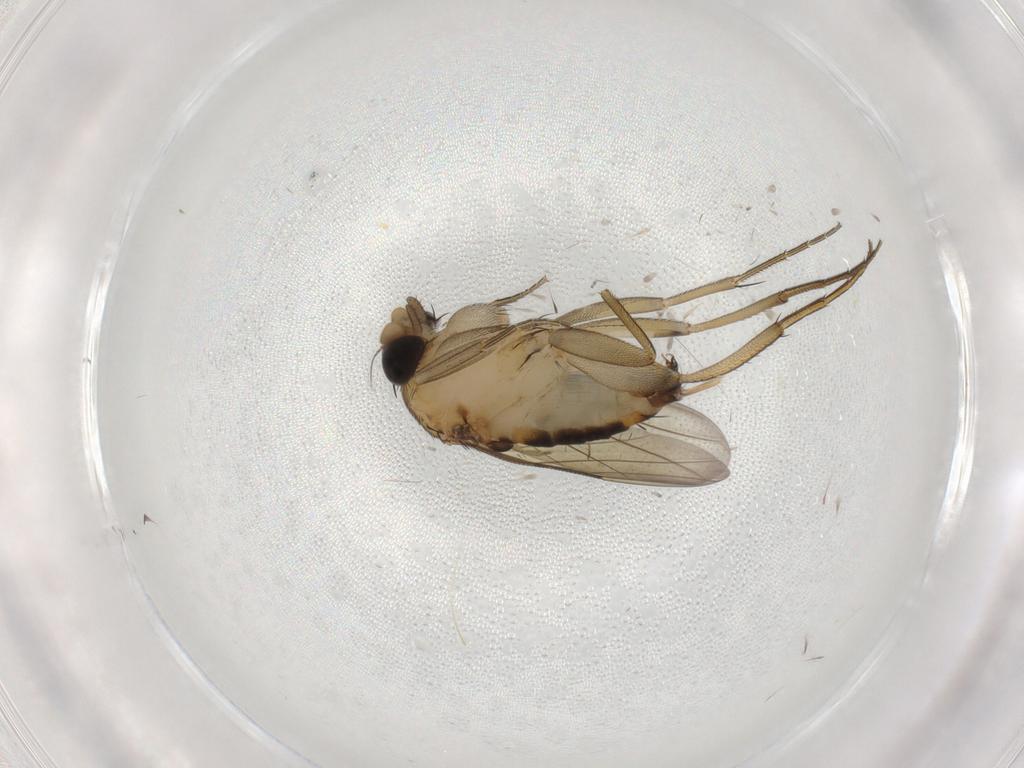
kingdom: Animalia
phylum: Arthropoda
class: Insecta
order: Diptera
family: Phoridae
